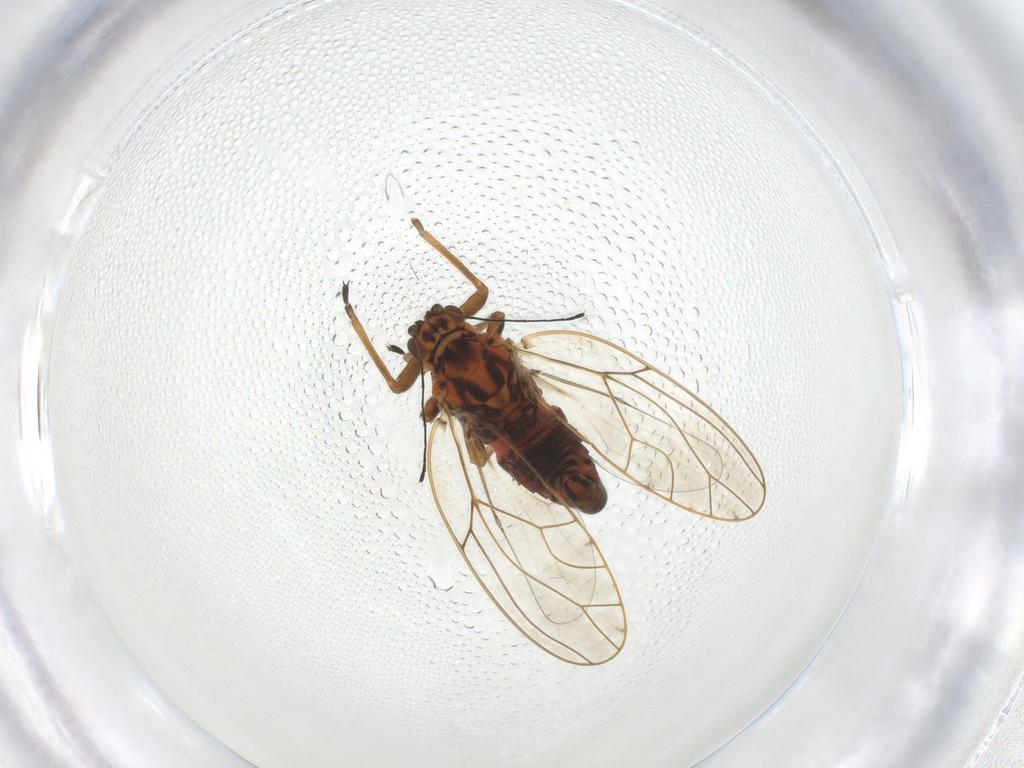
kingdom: Animalia
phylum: Arthropoda
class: Insecta
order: Hemiptera
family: Triozidae
